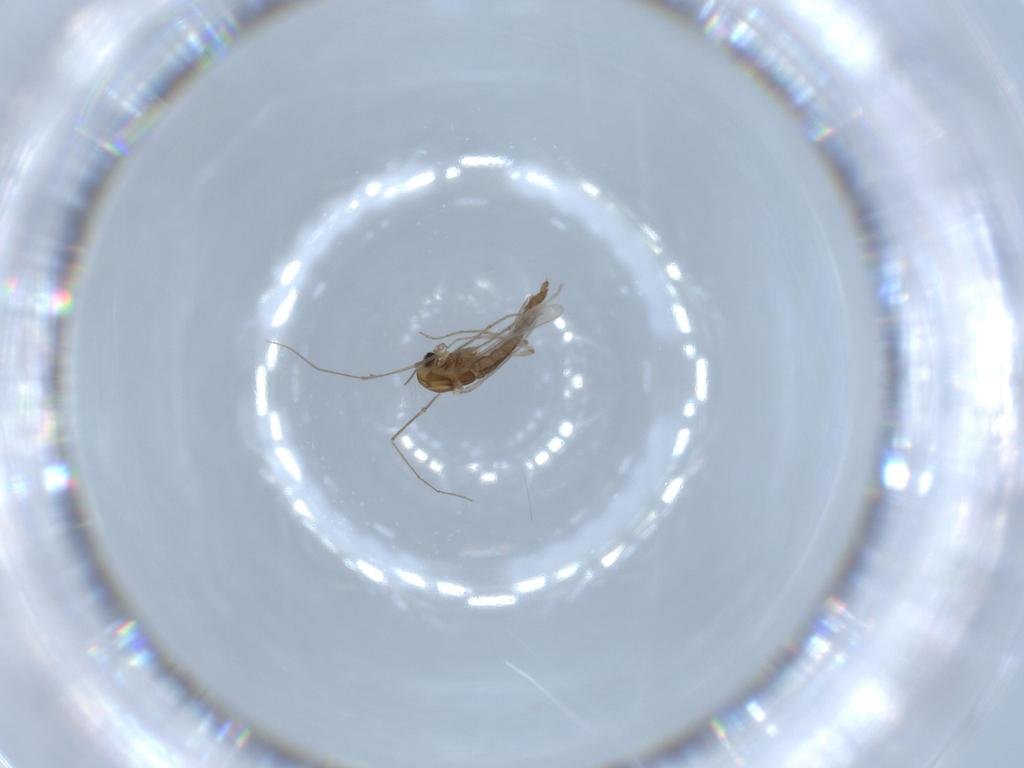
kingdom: Animalia
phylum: Arthropoda
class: Insecta
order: Diptera
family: Chironomidae
